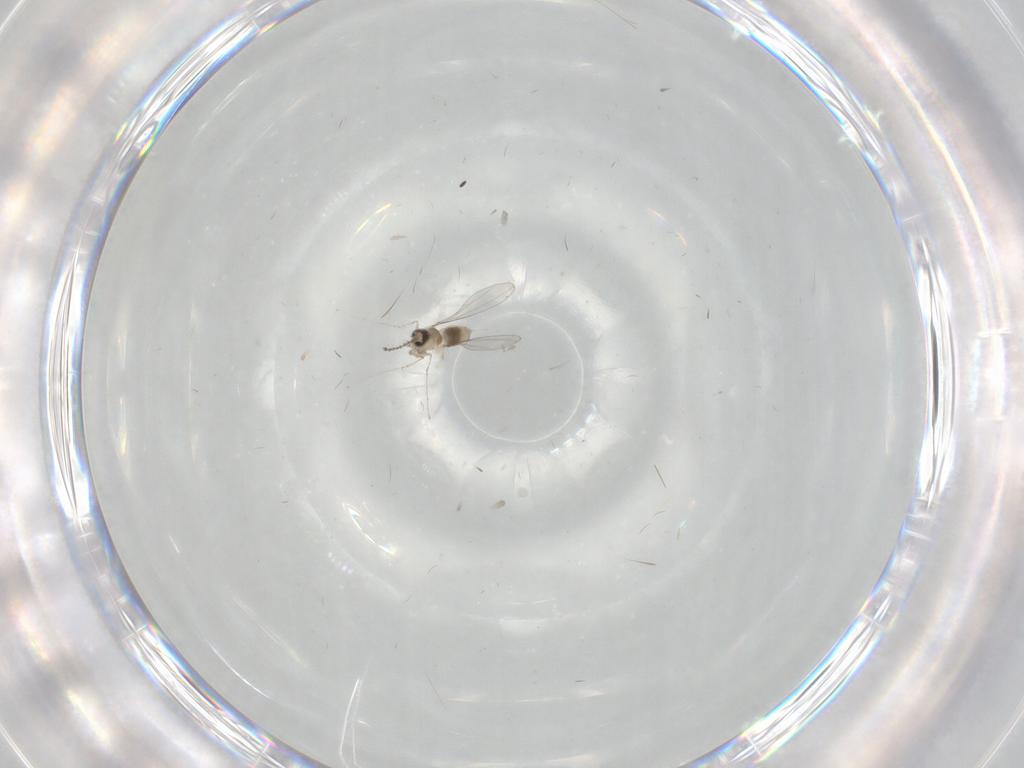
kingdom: Animalia
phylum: Arthropoda
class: Insecta
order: Diptera
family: Cecidomyiidae
